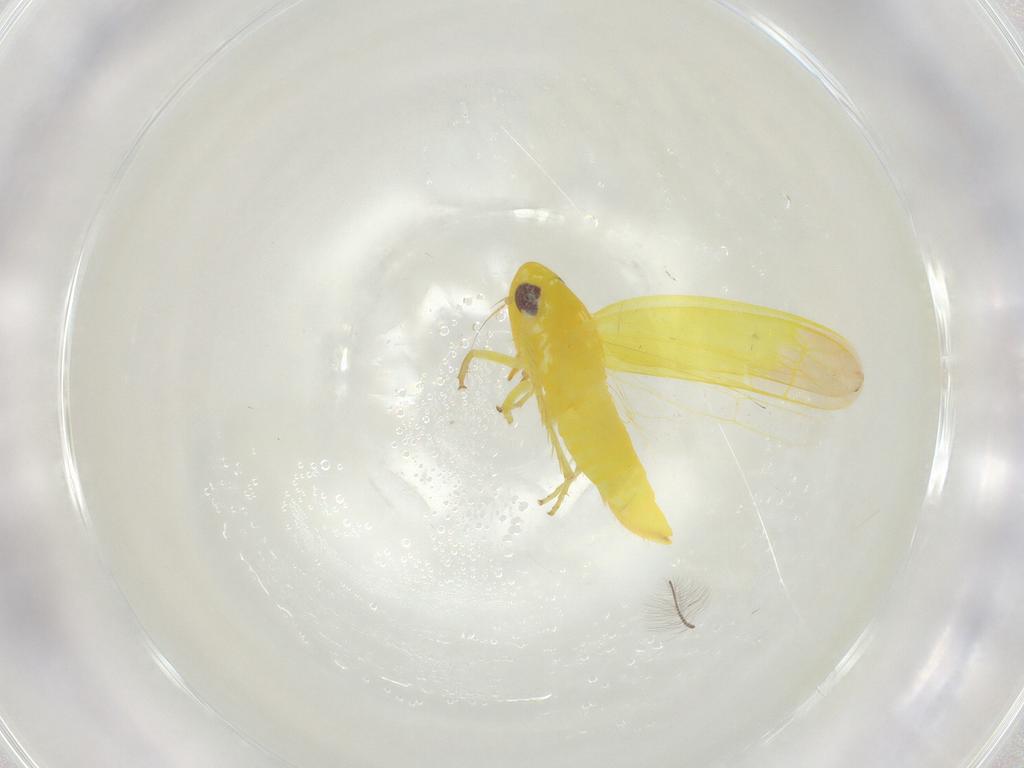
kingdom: Animalia
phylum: Arthropoda
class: Insecta
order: Hemiptera
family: Cicadellidae
